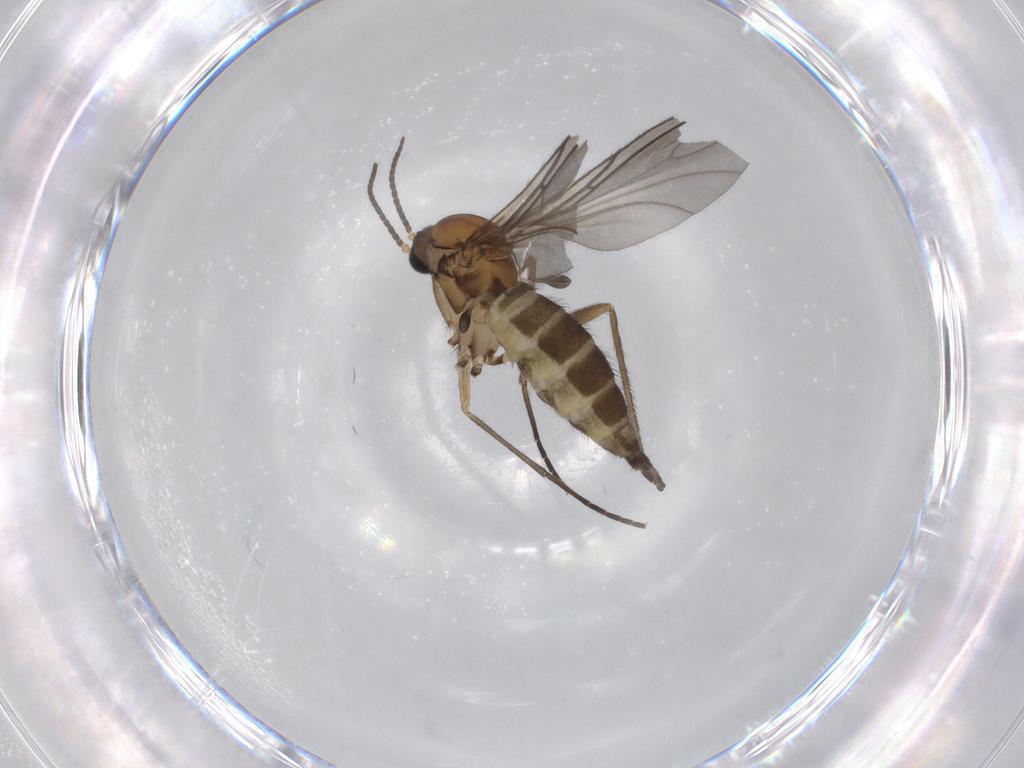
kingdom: Animalia
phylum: Arthropoda
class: Insecta
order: Diptera
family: Sciaridae
